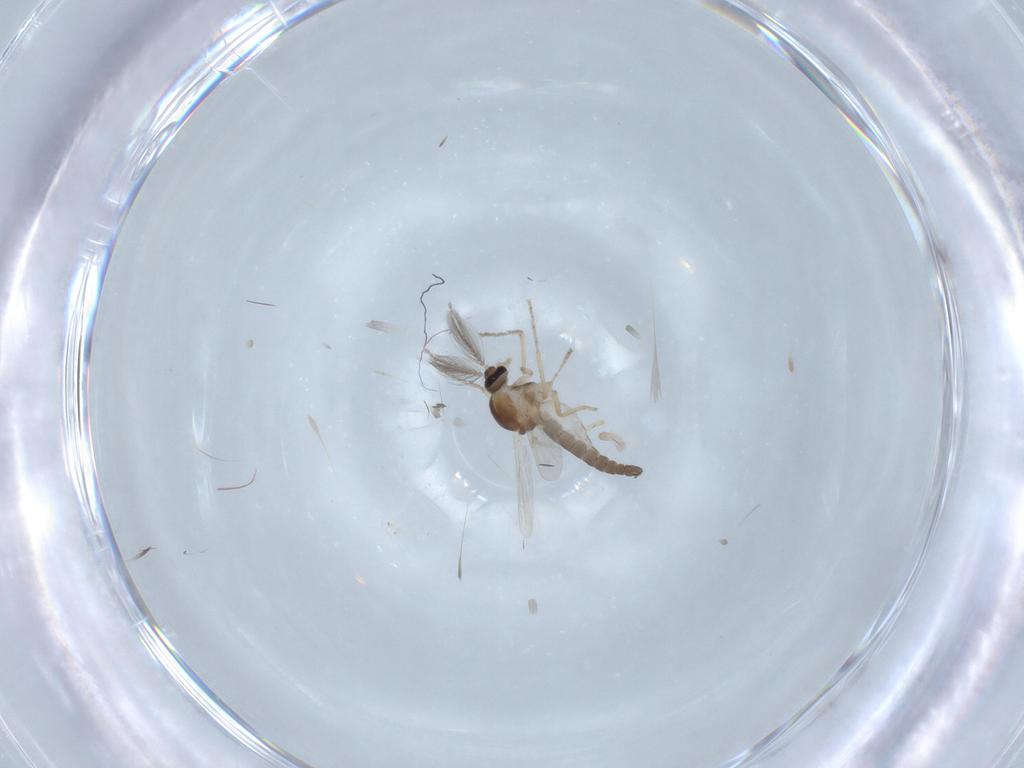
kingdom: Animalia
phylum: Arthropoda
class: Insecta
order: Diptera
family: Ceratopogonidae
